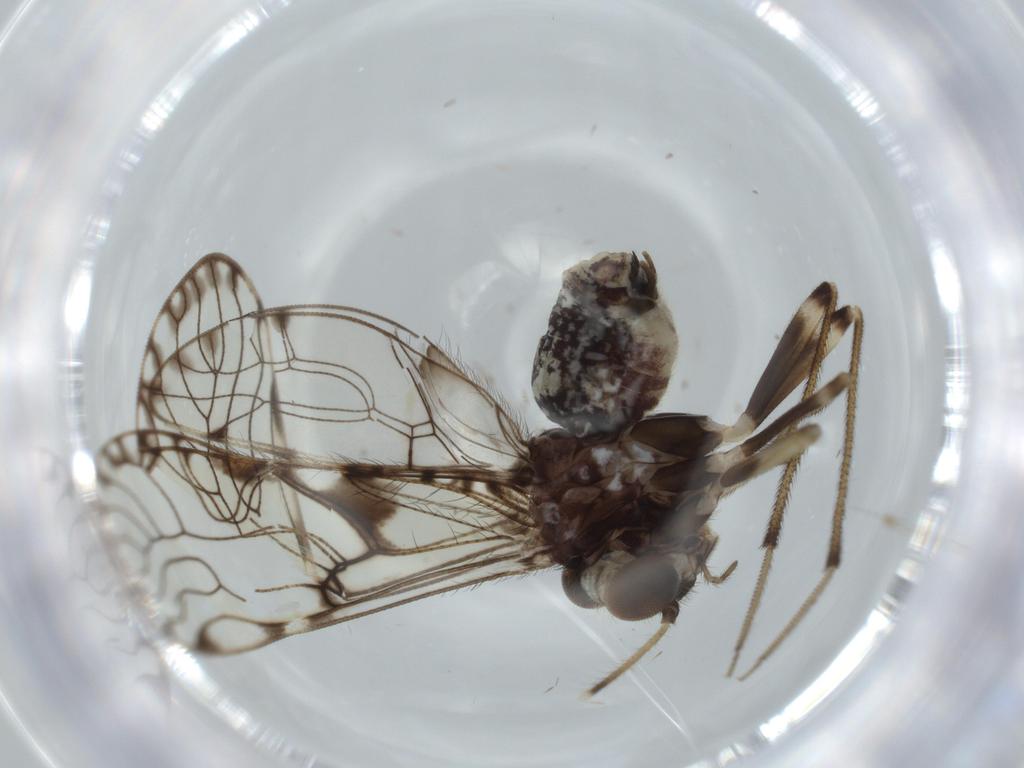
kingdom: Animalia
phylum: Arthropoda
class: Insecta
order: Diptera
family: Chironomidae
